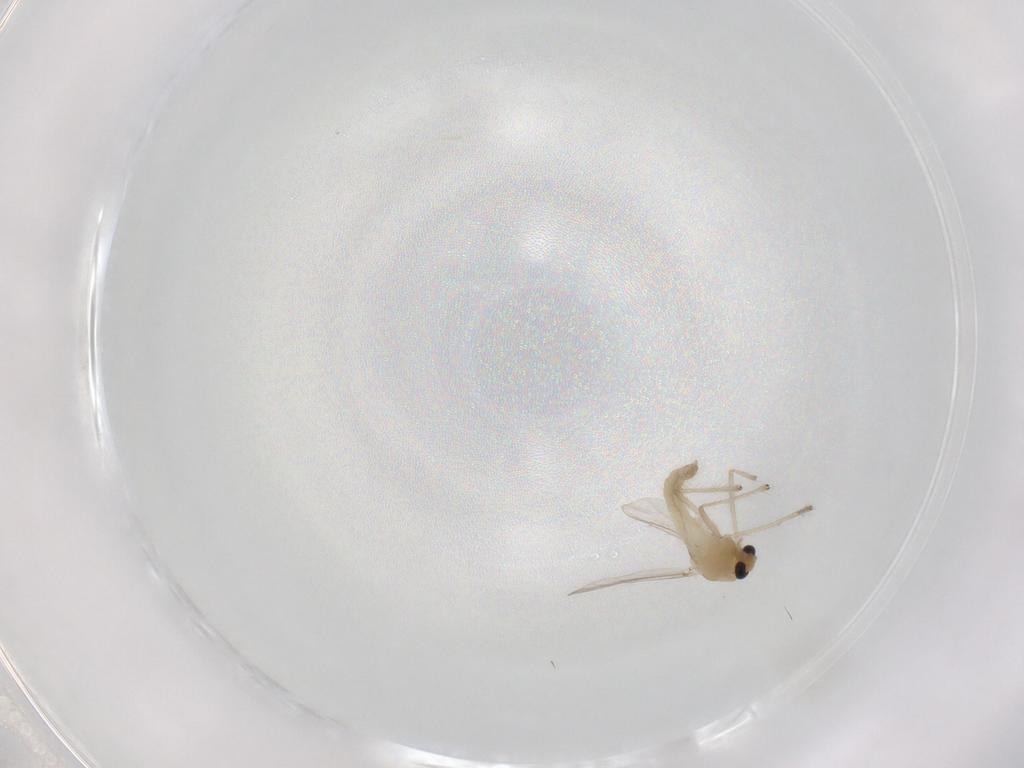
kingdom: Animalia
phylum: Arthropoda
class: Insecta
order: Diptera
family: Chironomidae
